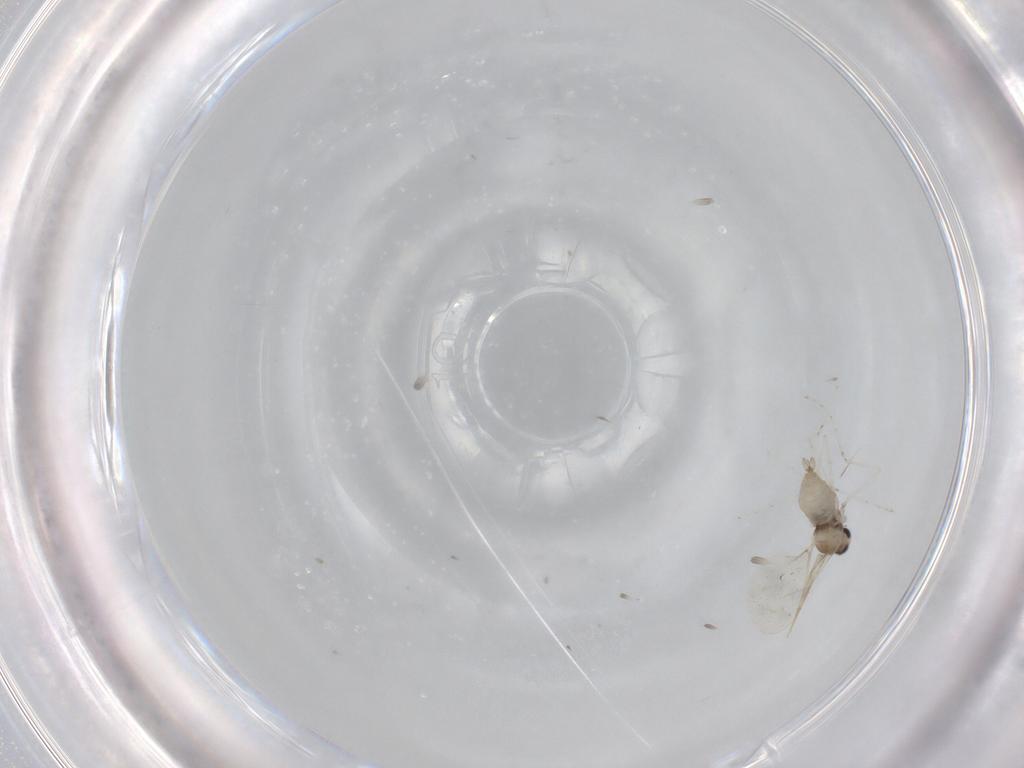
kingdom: Animalia
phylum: Arthropoda
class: Insecta
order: Diptera
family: Cecidomyiidae
